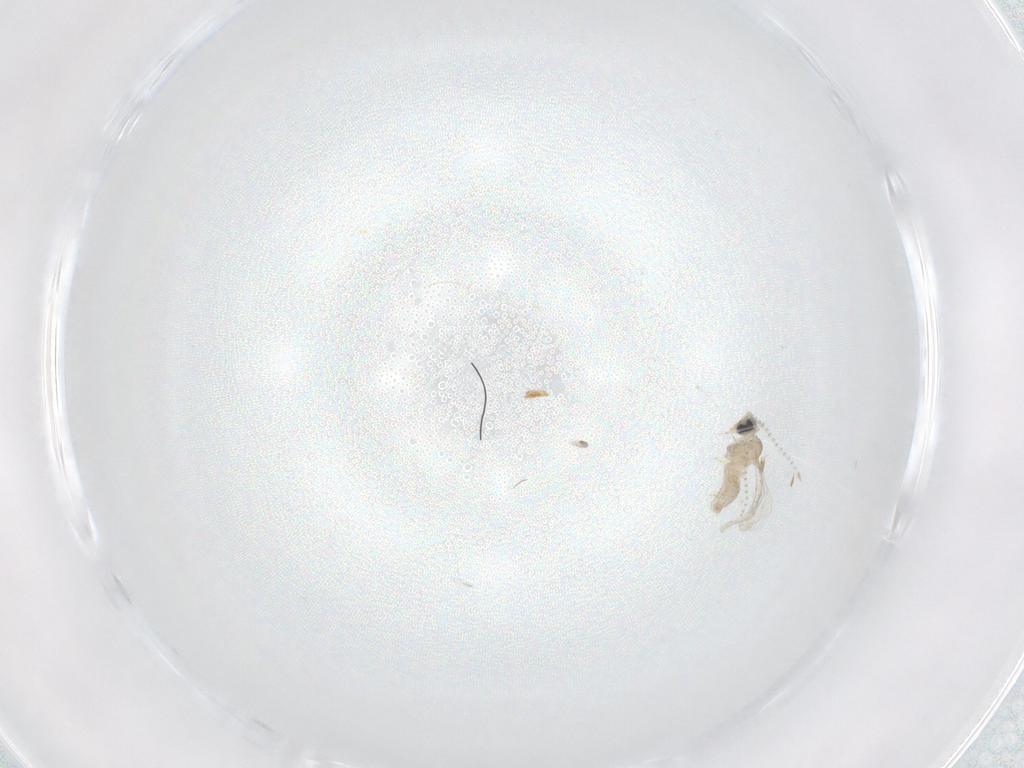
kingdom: Animalia
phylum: Arthropoda
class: Insecta
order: Diptera
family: Cecidomyiidae
